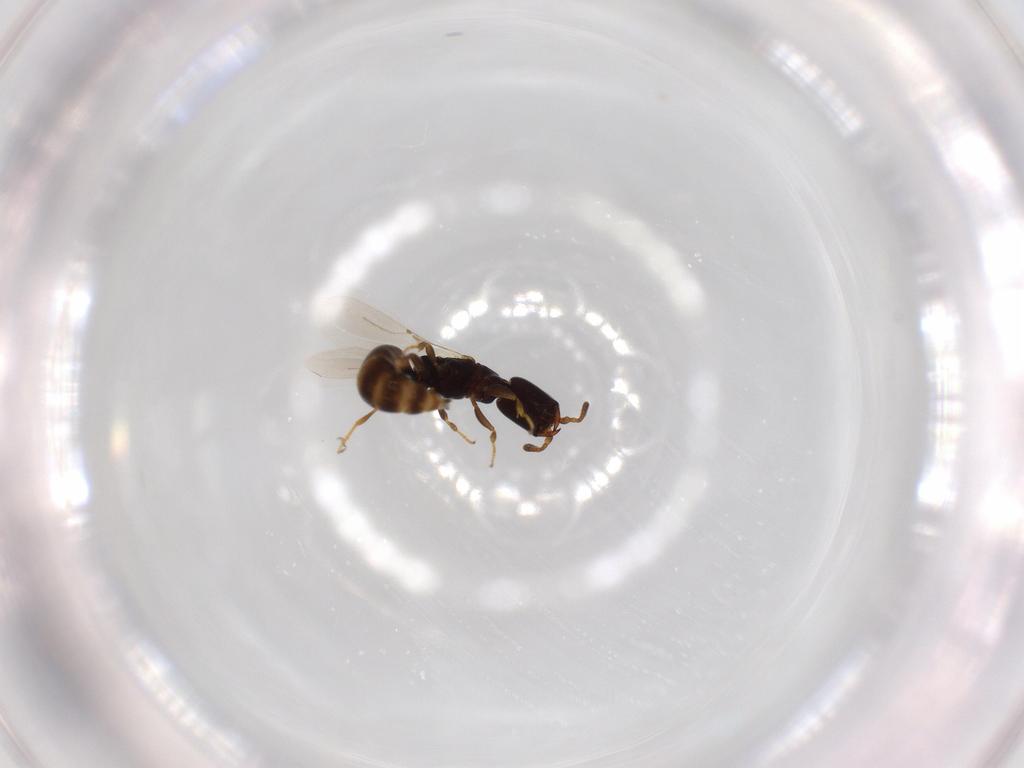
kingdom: Animalia
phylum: Arthropoda
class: Insecta
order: Hymenoptera
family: Bethylidae
